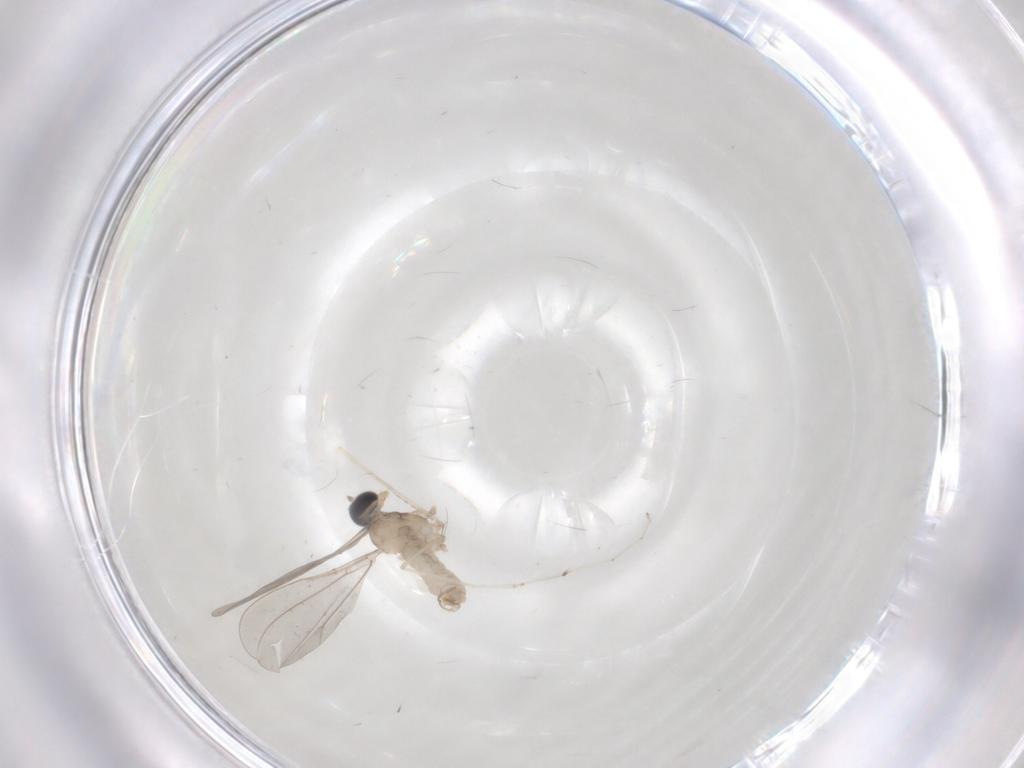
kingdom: Animalia
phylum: Arthropoda
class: Insecta
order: Diptera
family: Cecidomyiidae
